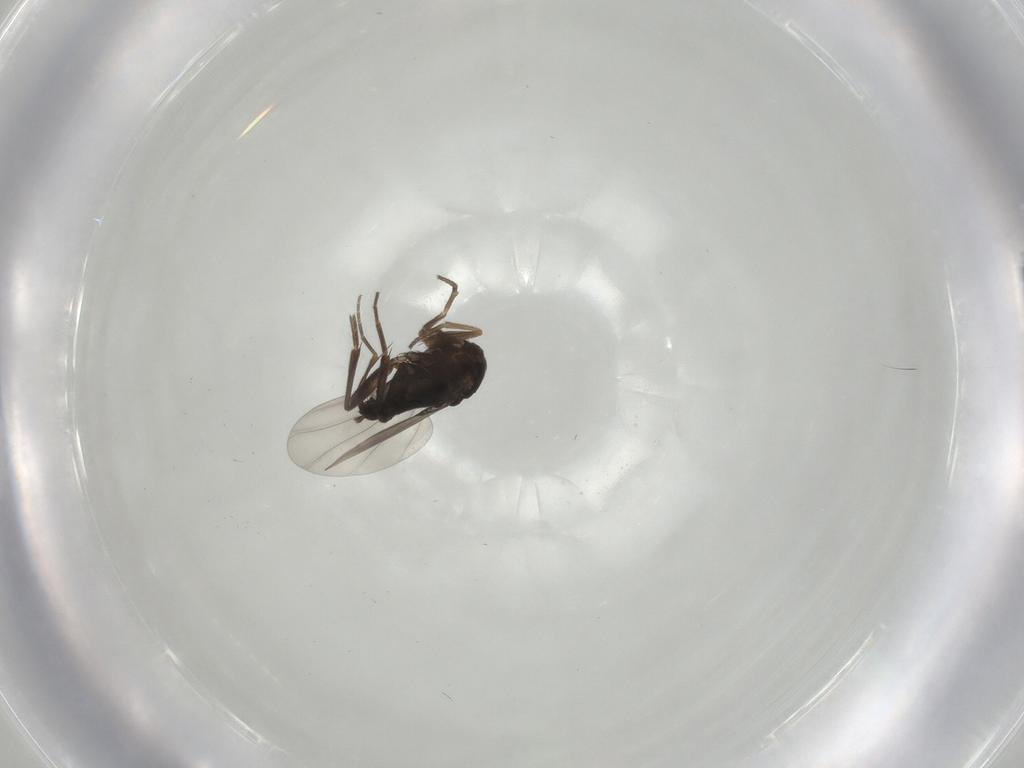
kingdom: Animalia
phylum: Arthropoda
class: Insecta
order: Diptera
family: Phoridae
